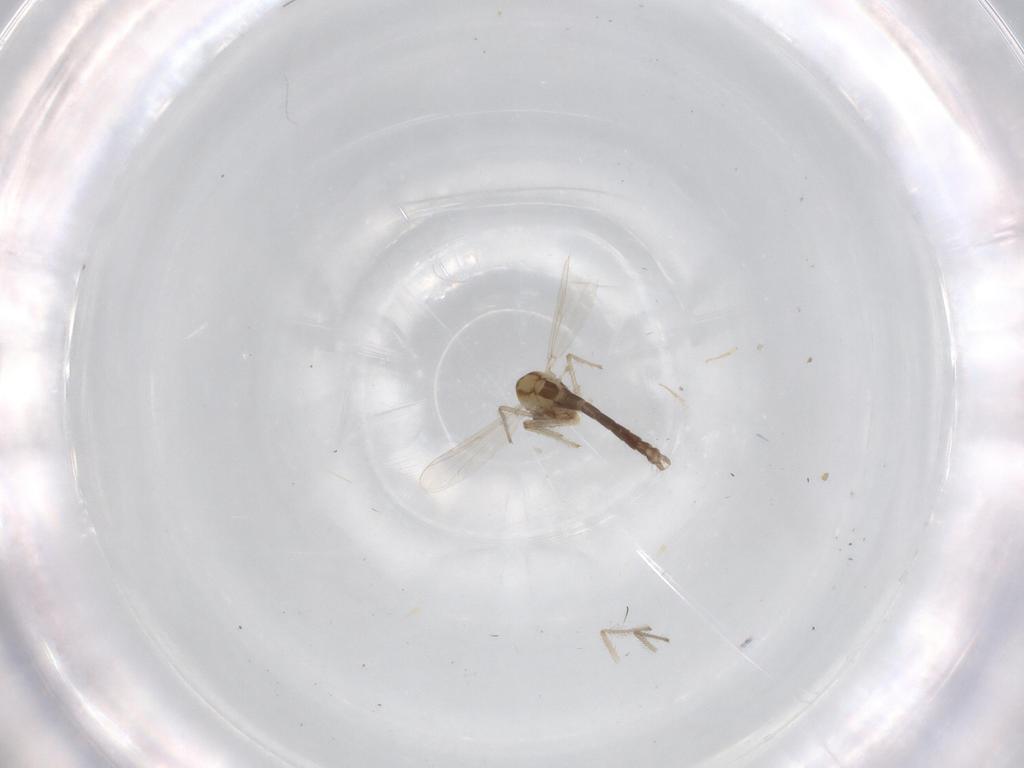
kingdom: Animalia
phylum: Arthropoda
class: Insecta
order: Diptera
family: Chironomidae
